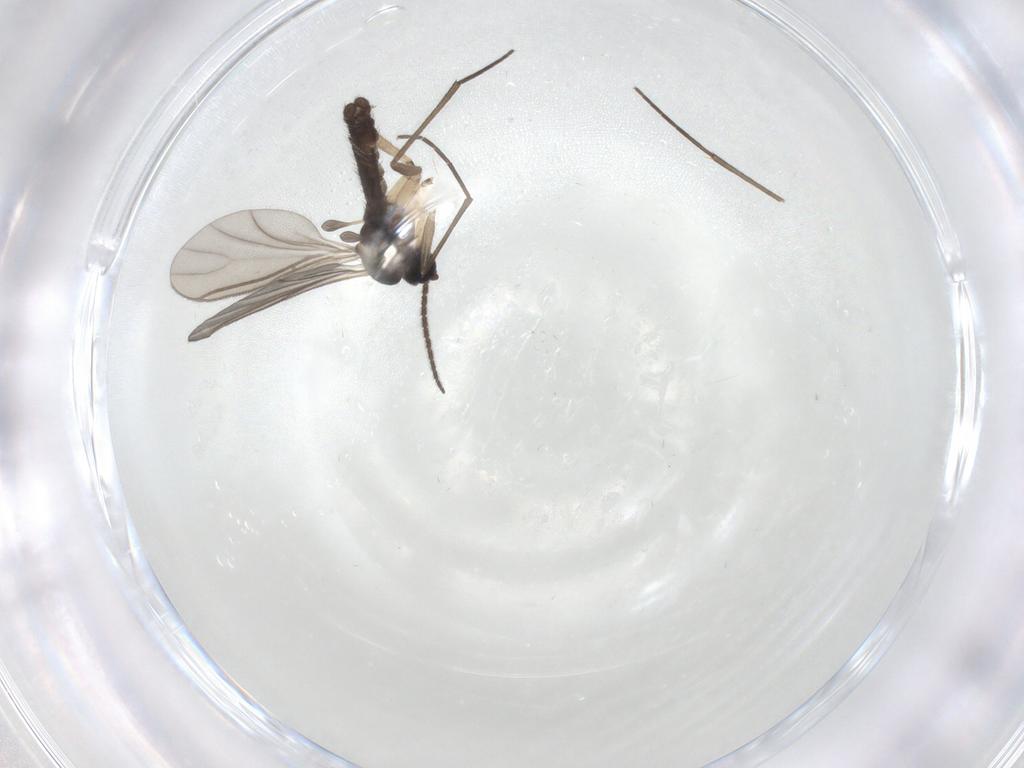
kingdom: Animalia
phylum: Arthropoda
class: Insecta
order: Diptera
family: Sciaridae
